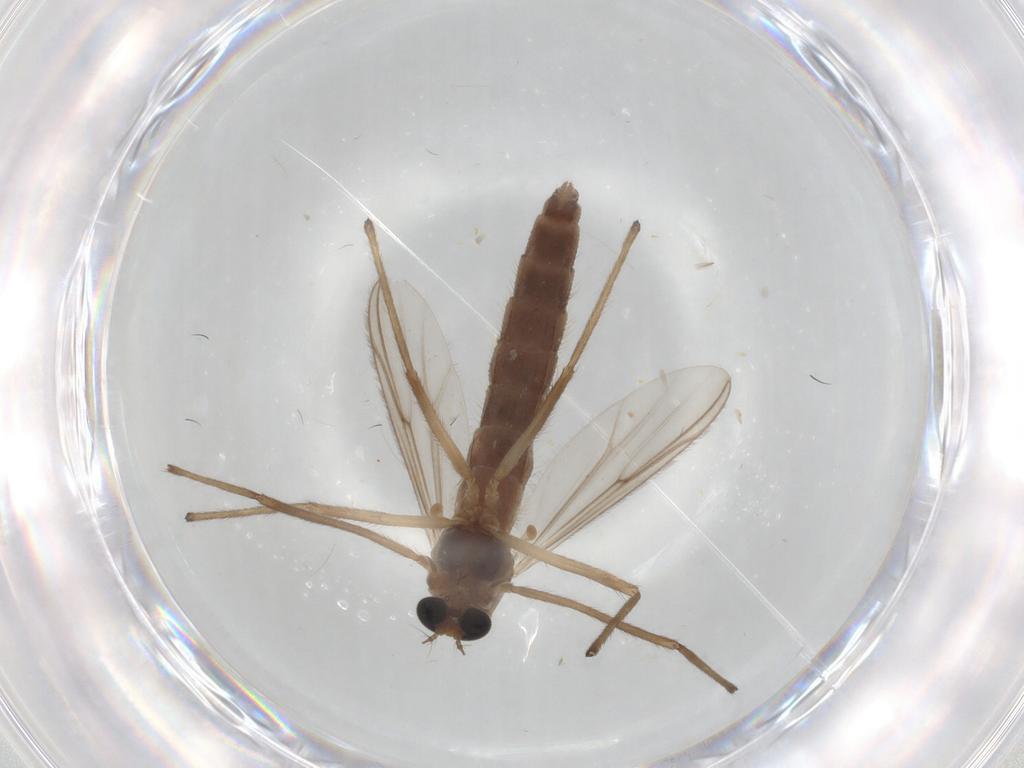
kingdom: Animalia
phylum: Arthropoda
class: Insecta
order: Diptera
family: Chironomidae
